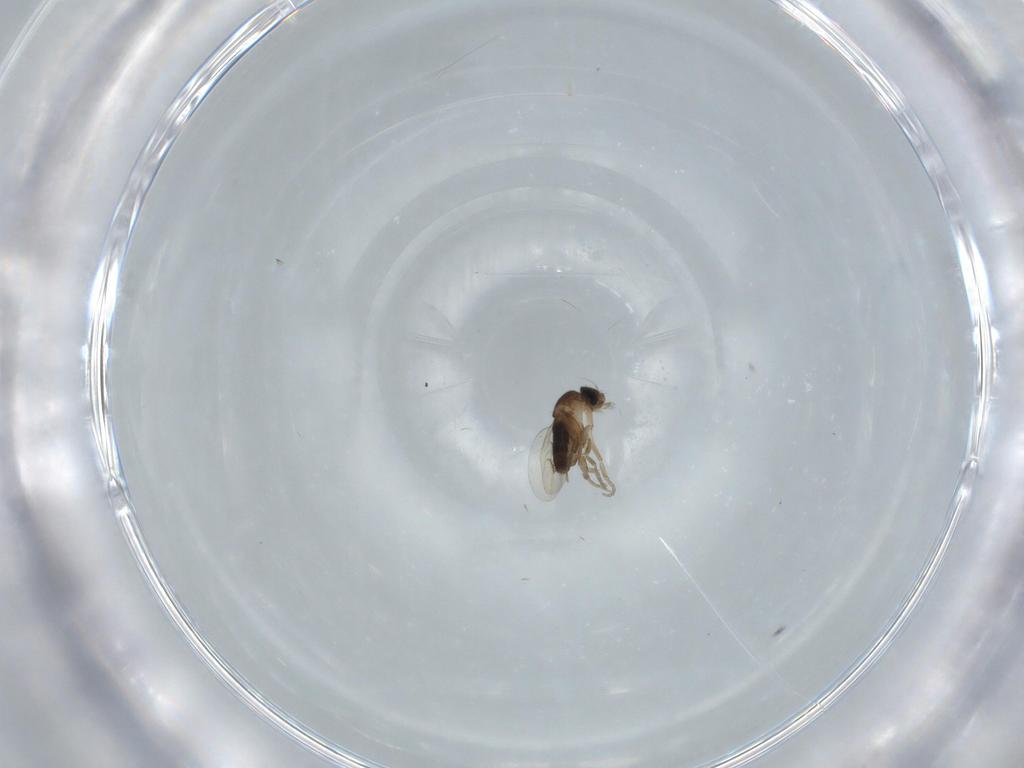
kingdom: Animalia
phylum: Arthropoda
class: Insecta
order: Diptera
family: Phoridae
